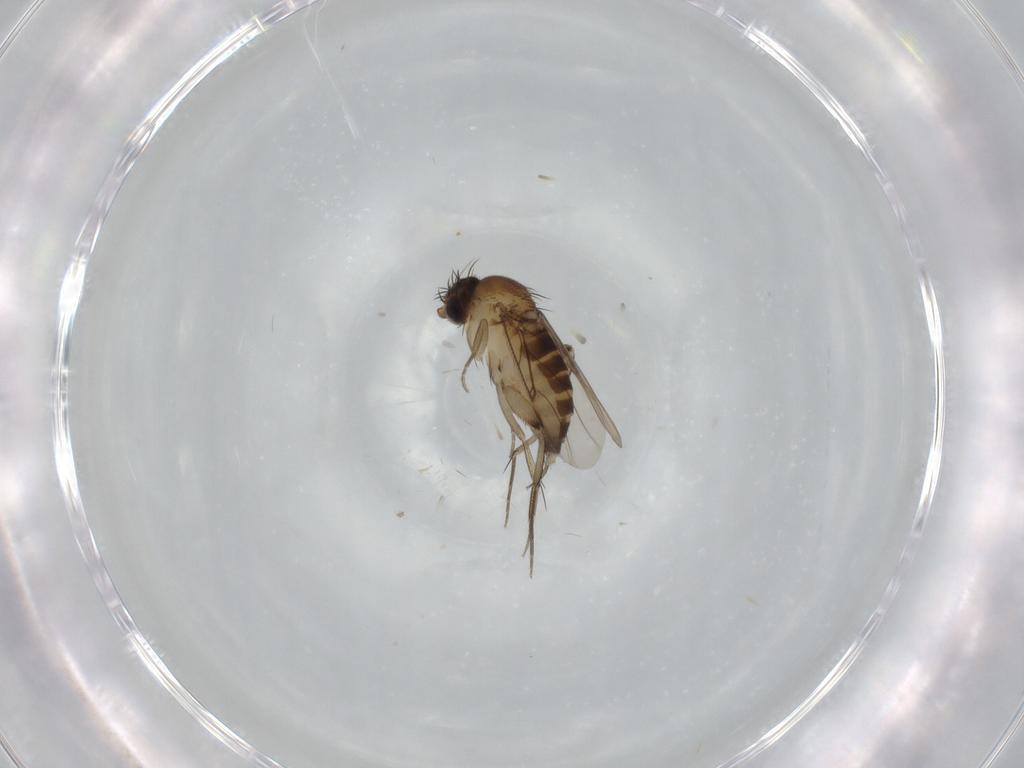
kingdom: Animalia
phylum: Arthropoda
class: Insecta
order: Diptera
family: Phoridae
